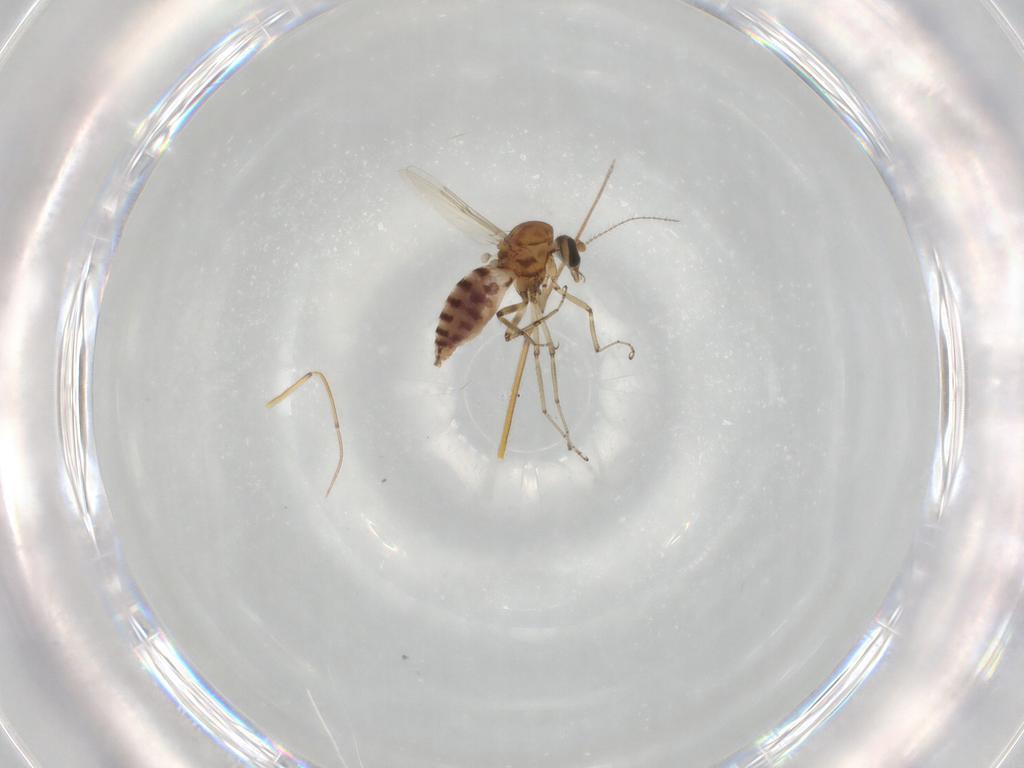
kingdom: Animalia
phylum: Arthropoda
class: Insecta
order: Diptera
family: Ceratopogonidae
